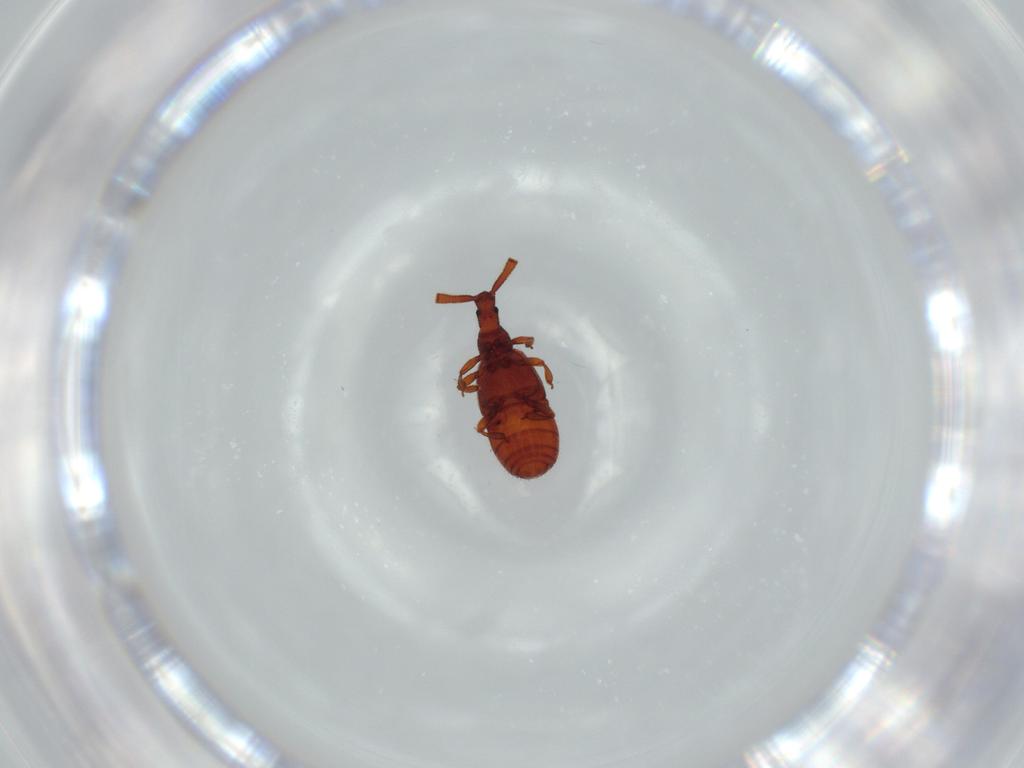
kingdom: Animalia
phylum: Arthropoda
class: Insecta
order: Coleoptera
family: Staphylinidae
